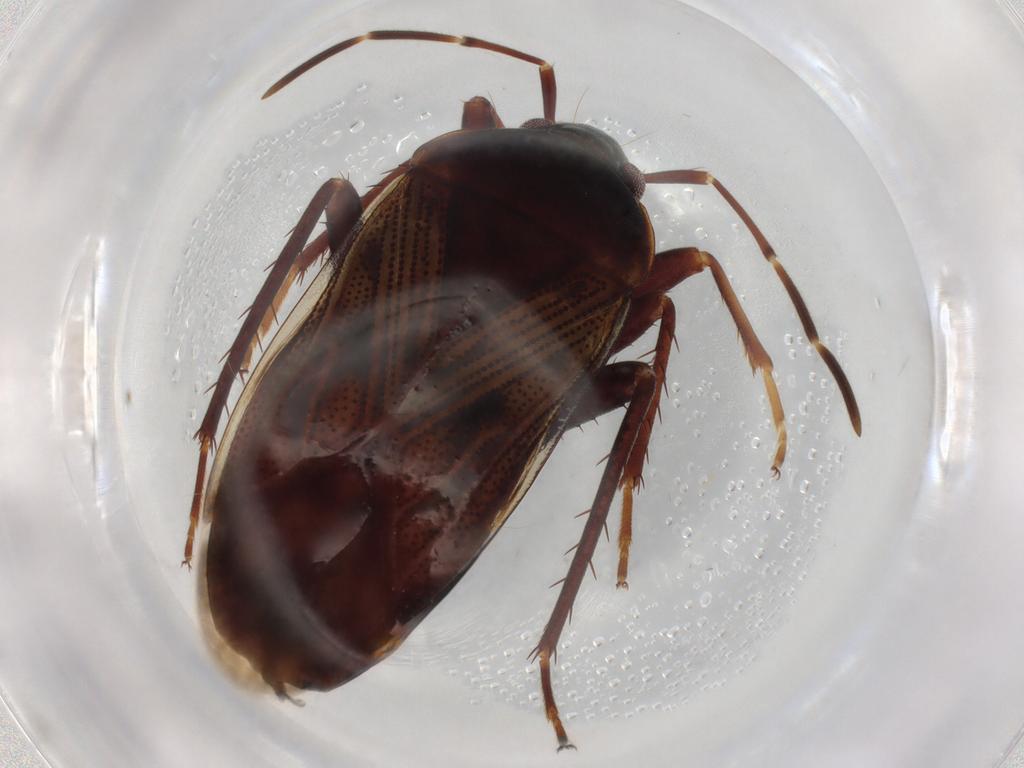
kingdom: Animalia
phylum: Arthropoda
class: Insecta
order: Hemiptera
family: Rhyparochromidae
